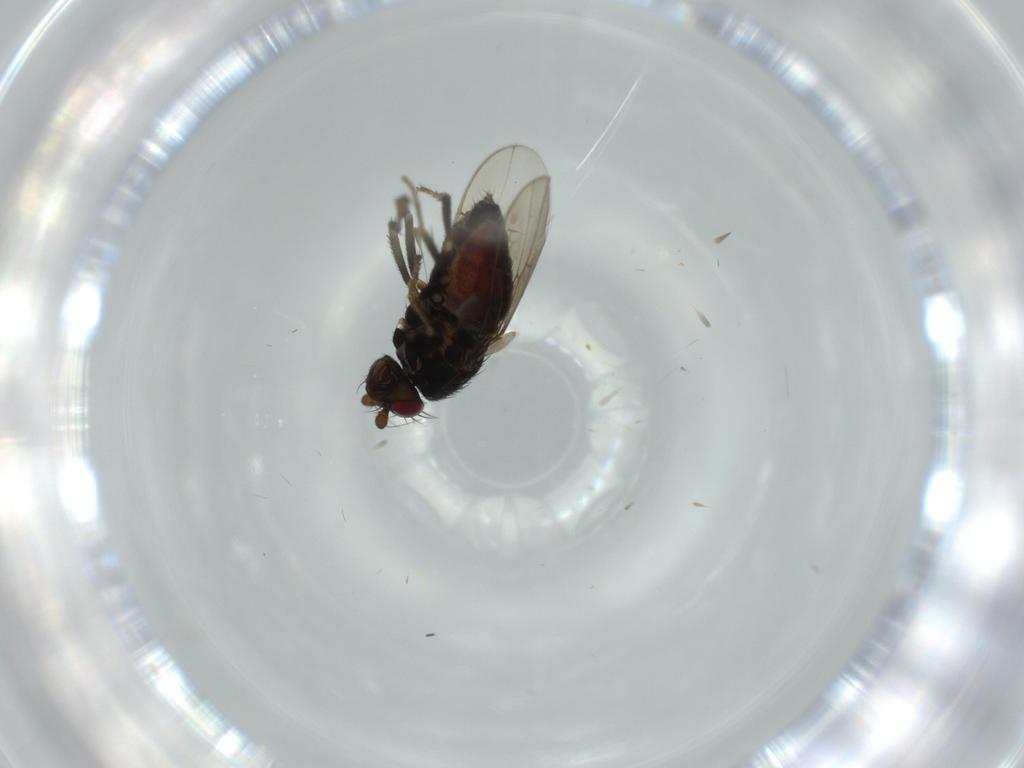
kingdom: Animalia
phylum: Arthropoda
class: Insecta
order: Diptera
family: Sphaeroceridae
